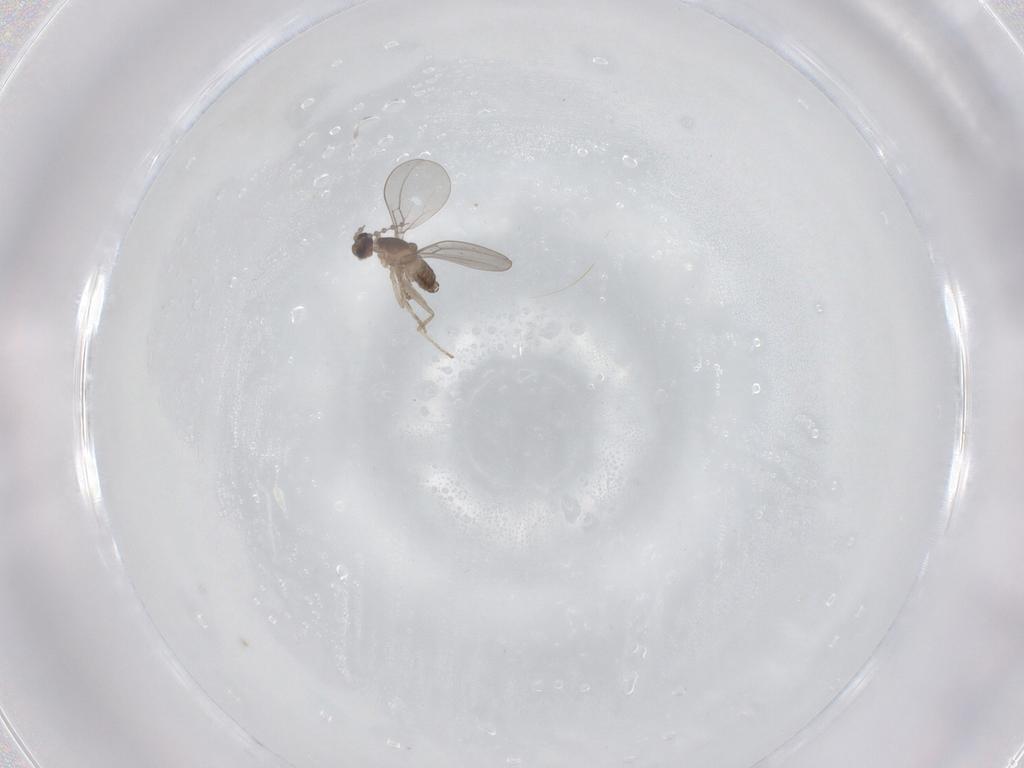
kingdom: Animalia
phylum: Arthropoda
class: Insecta
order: Diptera
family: Cecidomyiidae
